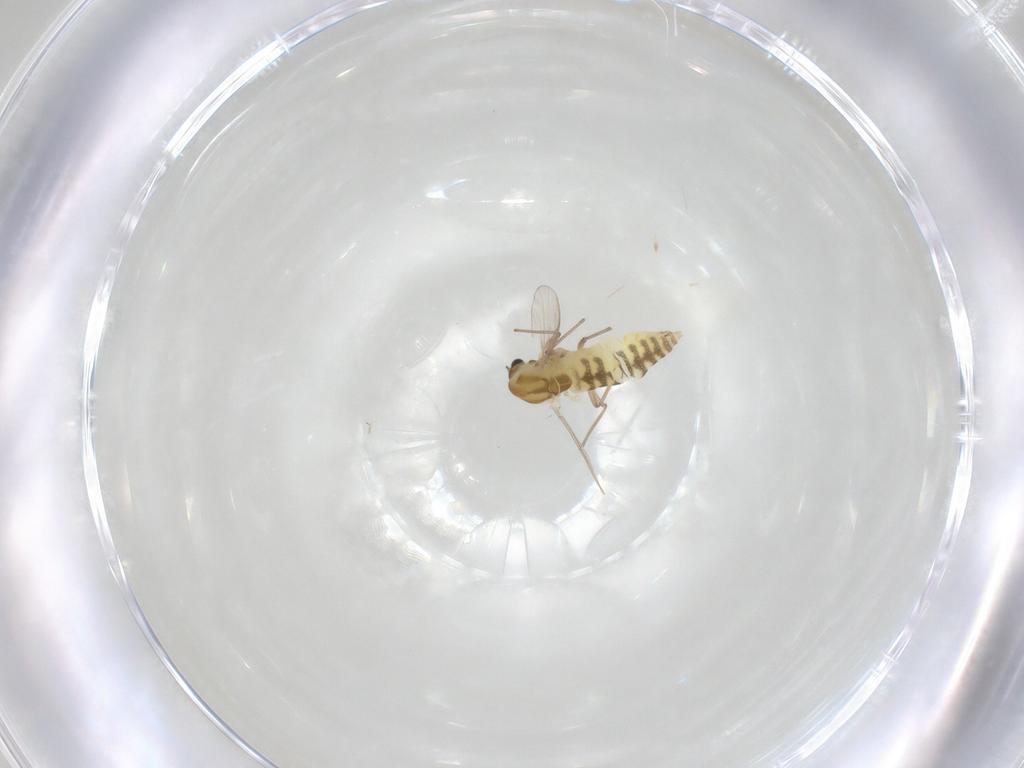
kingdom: Animalia
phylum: Arthropoda
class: Insecta
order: Diptera
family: Chironomidae
